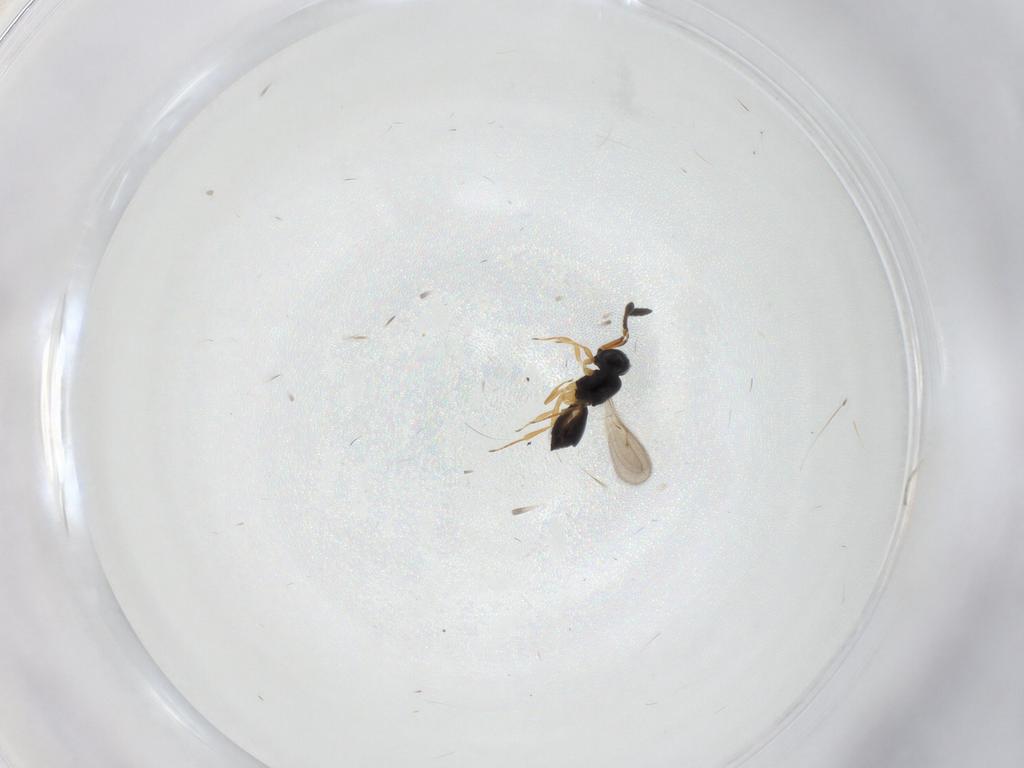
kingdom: Animalia
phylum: Arthropoda
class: Insecta
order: Hymenoptera
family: Scelionidae
